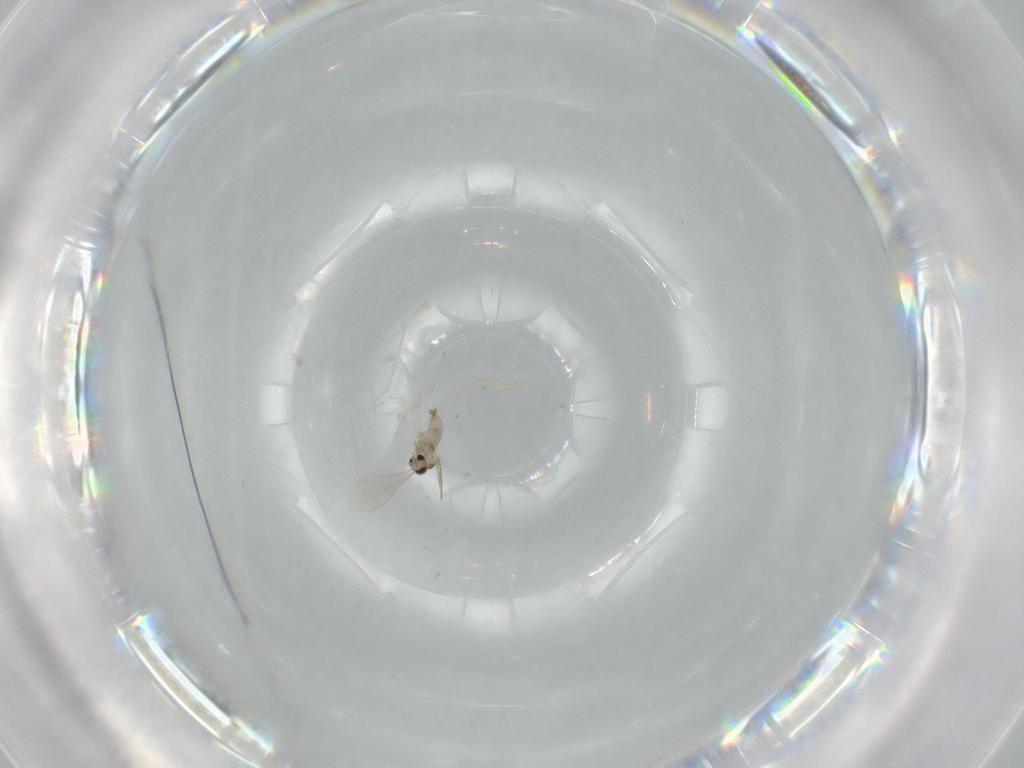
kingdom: Animalia
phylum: Arthropoda
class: Insecta
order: Diptera
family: Cecidomyiidae
